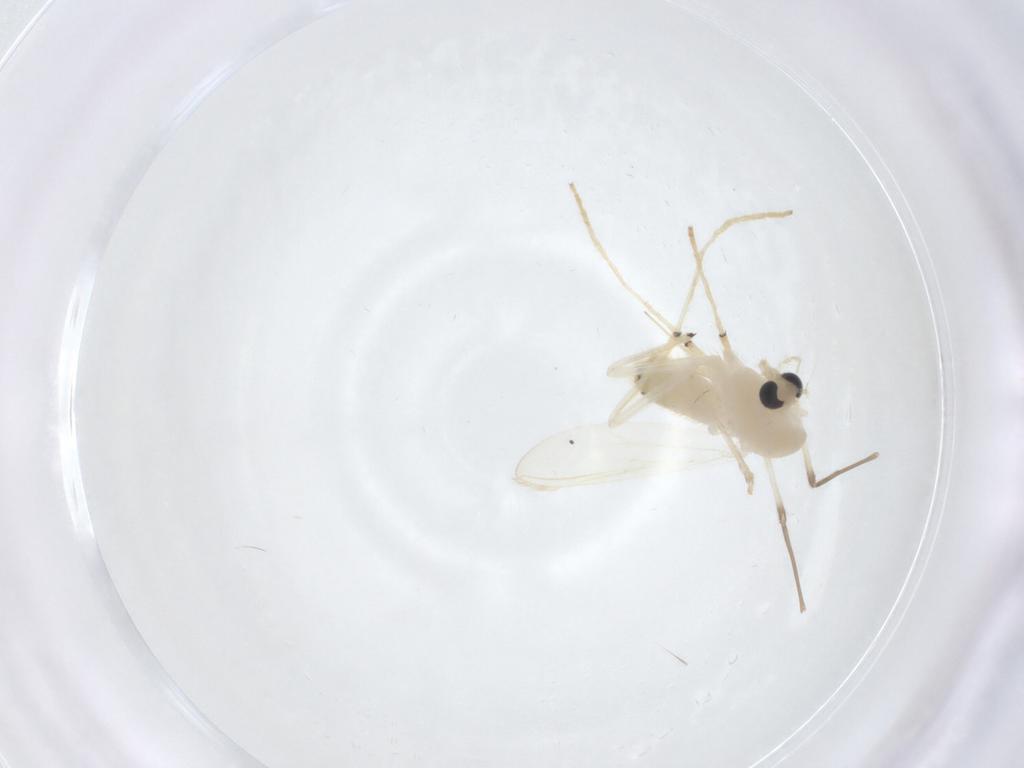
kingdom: Animalia
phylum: Arthropoda
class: Insecta
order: Diptera
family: Chironomidae
